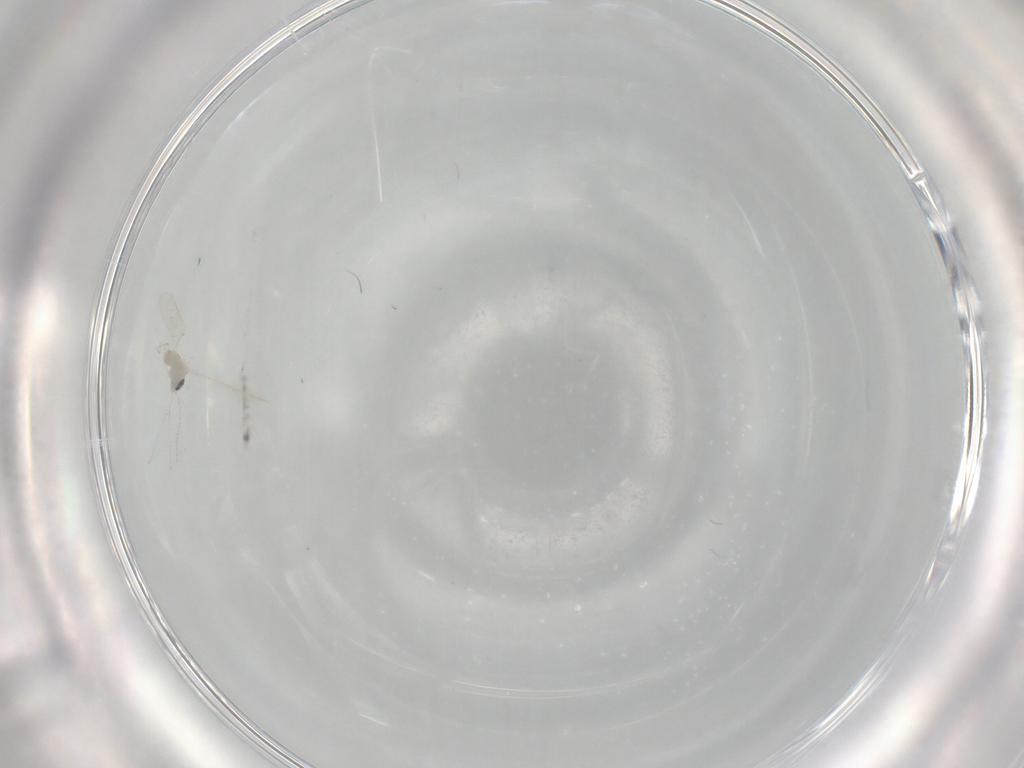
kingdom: Animalia
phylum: Arthropoda
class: Insecta
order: Diptera
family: Cecidomyiidae
